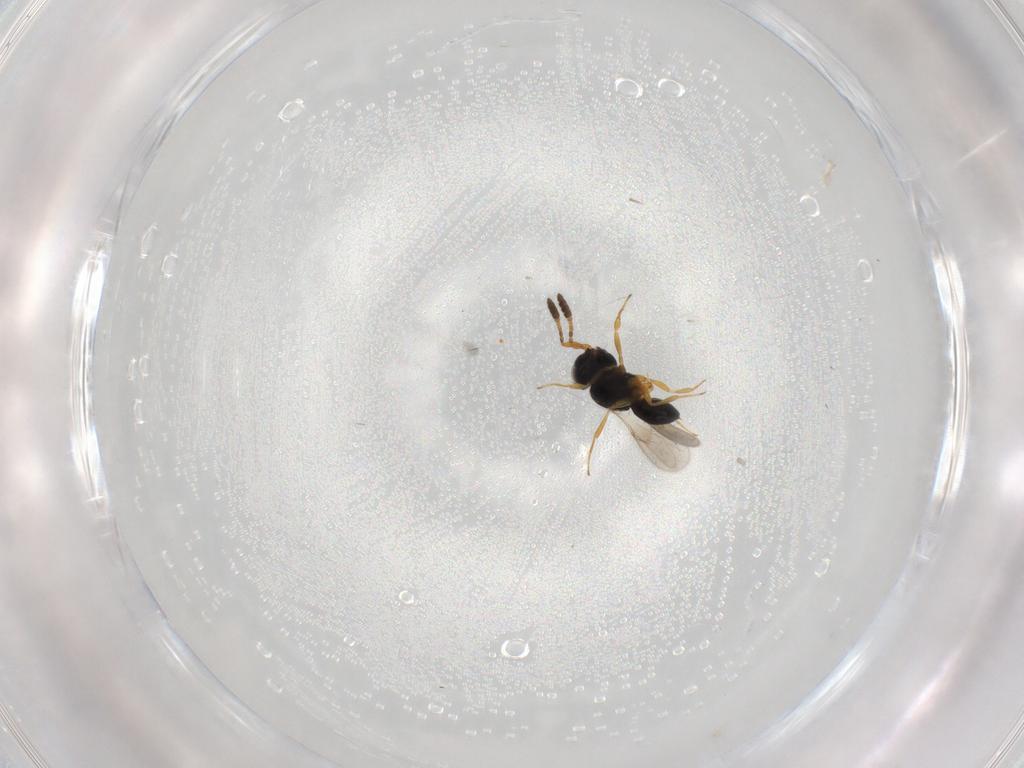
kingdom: Animalia
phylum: Arthropoda
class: Insecta
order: Hymenoptera
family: Scelionidae
